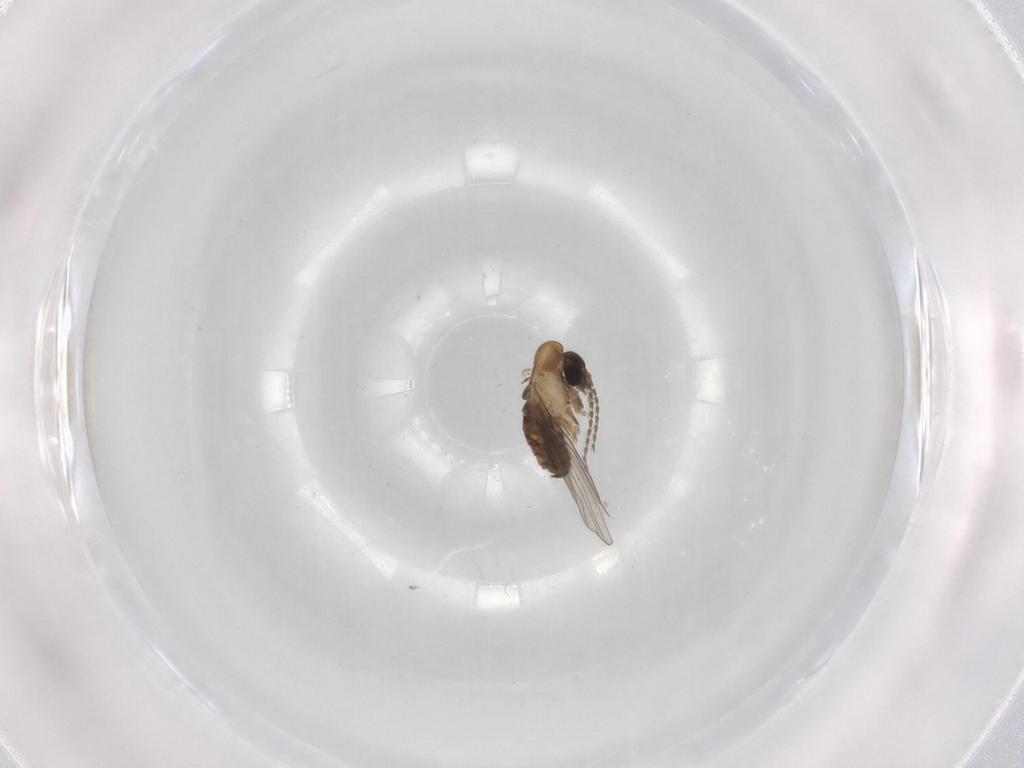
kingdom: Animalia
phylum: Arthropoda
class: Insecta
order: Diptera
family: Psychodidae
